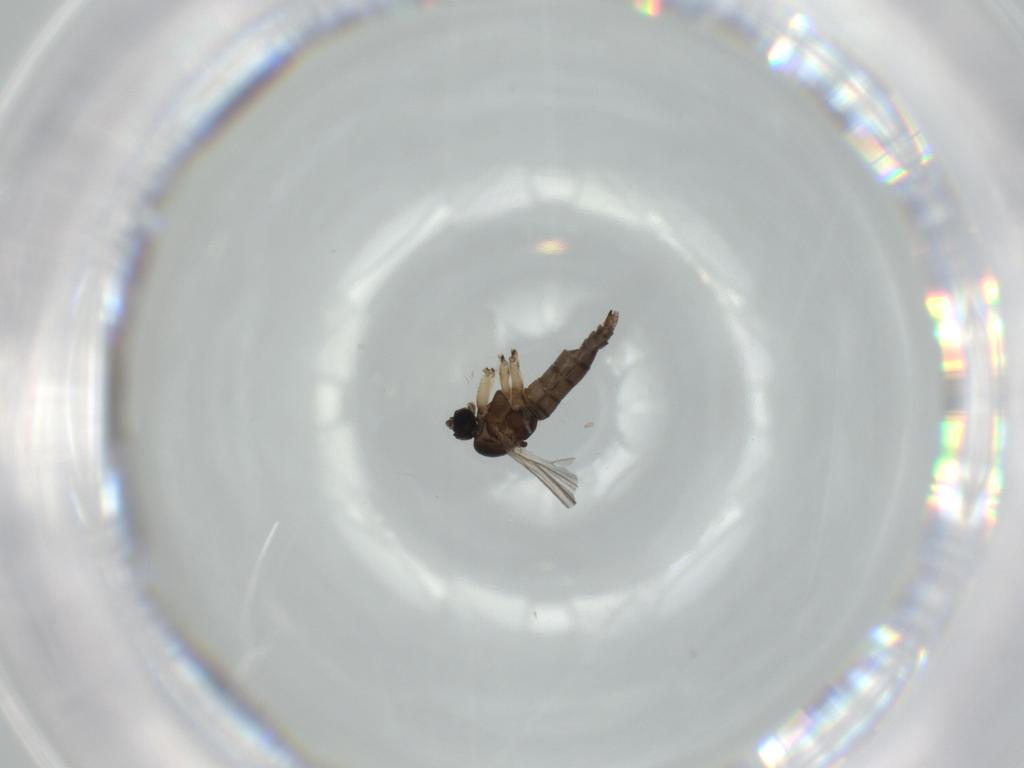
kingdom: Animalia
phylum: Arthropoda
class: Insecta
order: Diptera
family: Sciaridae
